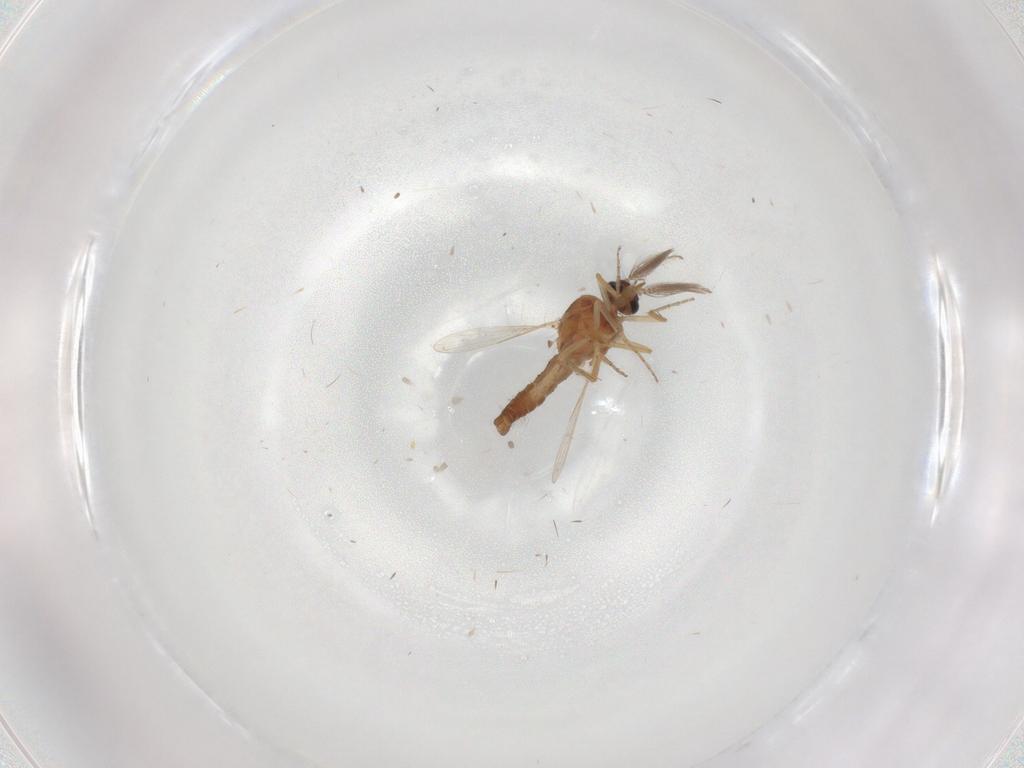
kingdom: Animalia
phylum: Arthropoda
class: Insecta
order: Diptera
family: Ceratopogonidae
